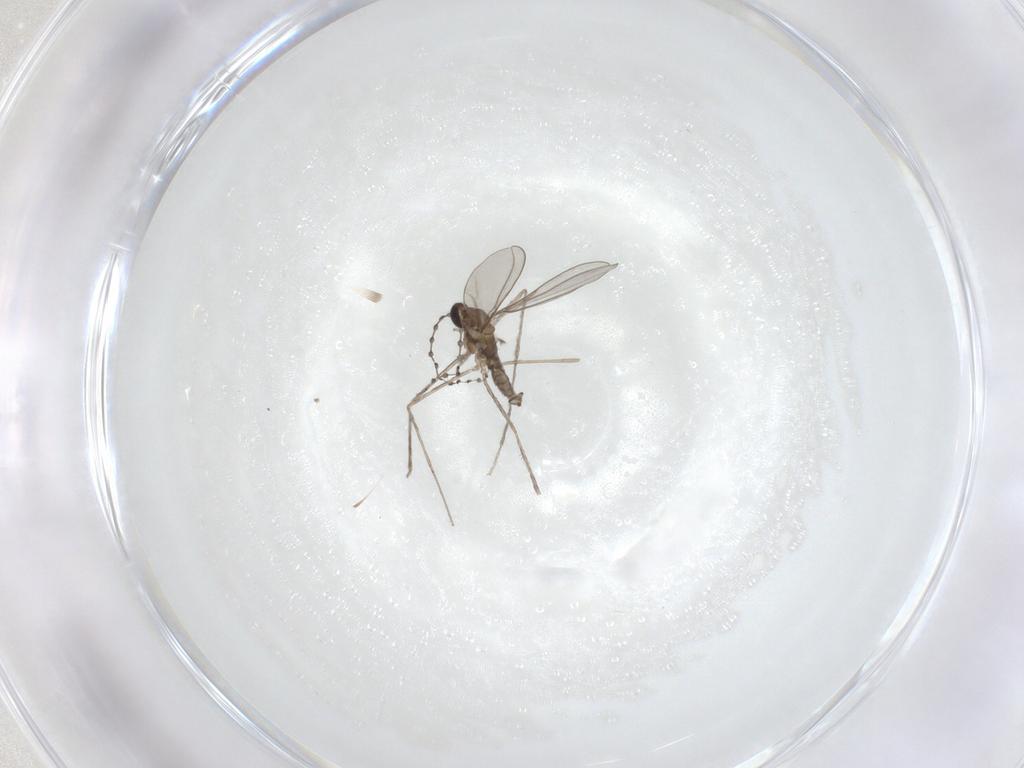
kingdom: Animalia
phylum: Arthropoda
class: Insecta
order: Diptera
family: Cecidomyiidae
